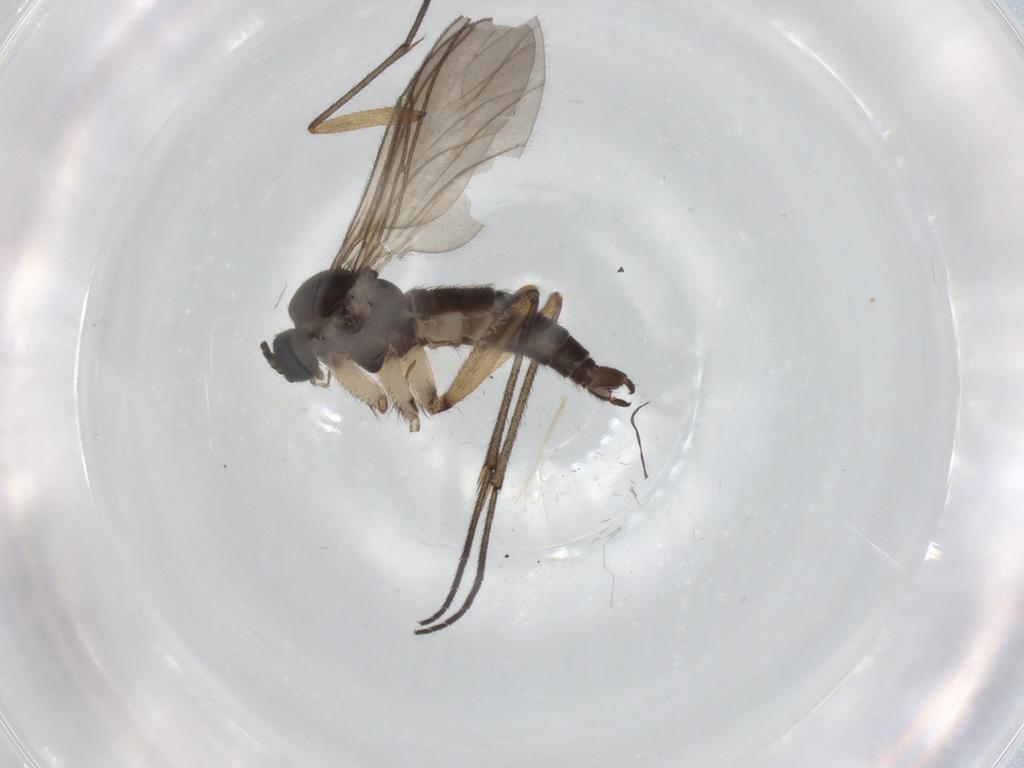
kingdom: Animalia
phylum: Arthropoda
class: Insecta
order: Diptera
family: Sciaridae
